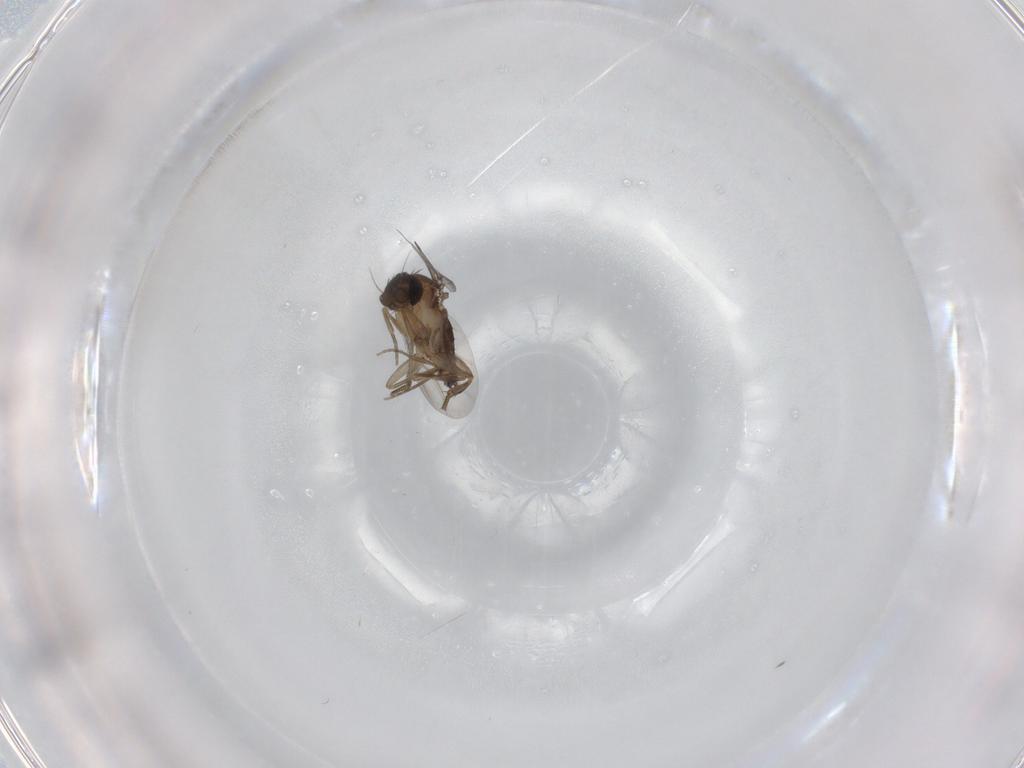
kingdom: Animalia
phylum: Arthropoda
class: Insecta
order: Diptera
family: Phoridae
